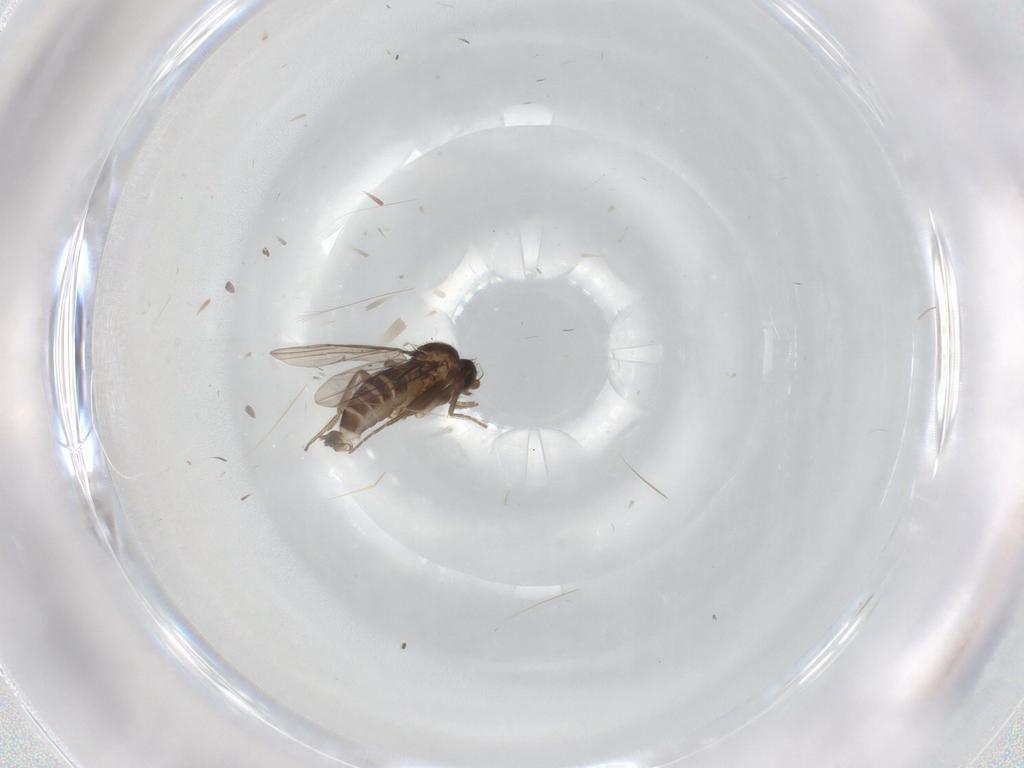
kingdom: Animalia
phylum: Arthropoda
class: Insecta
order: Diptera
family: Phoridae
